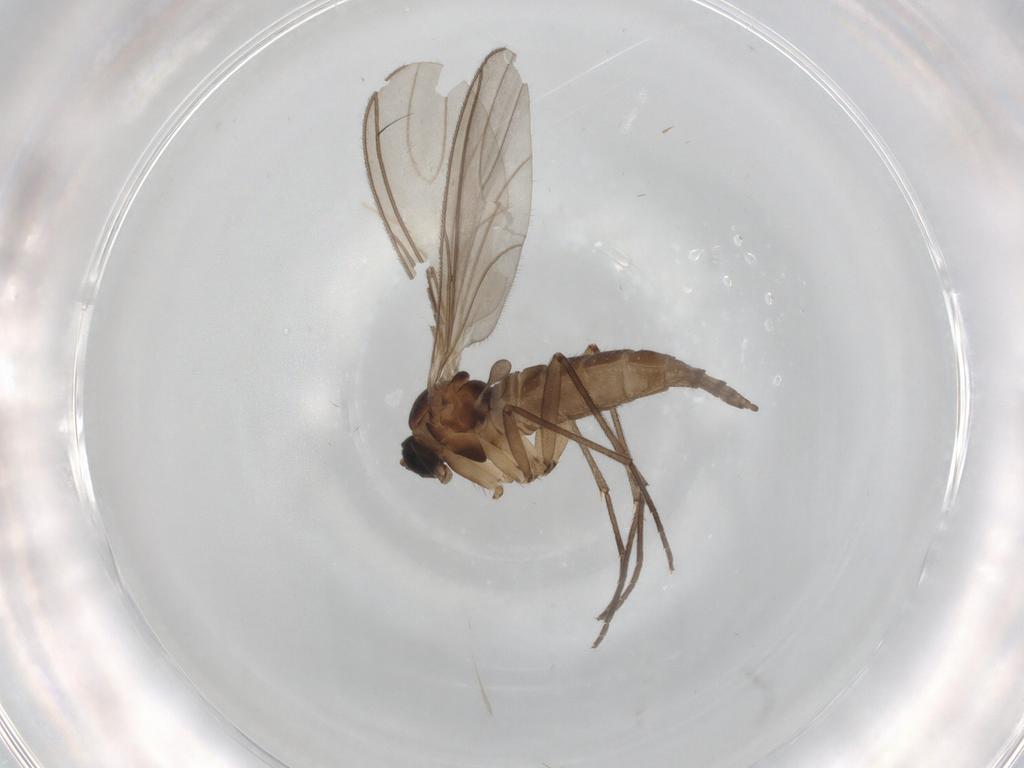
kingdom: Animalia
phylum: Arthropoda
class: Insecta
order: Diptera
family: Sciaridae
